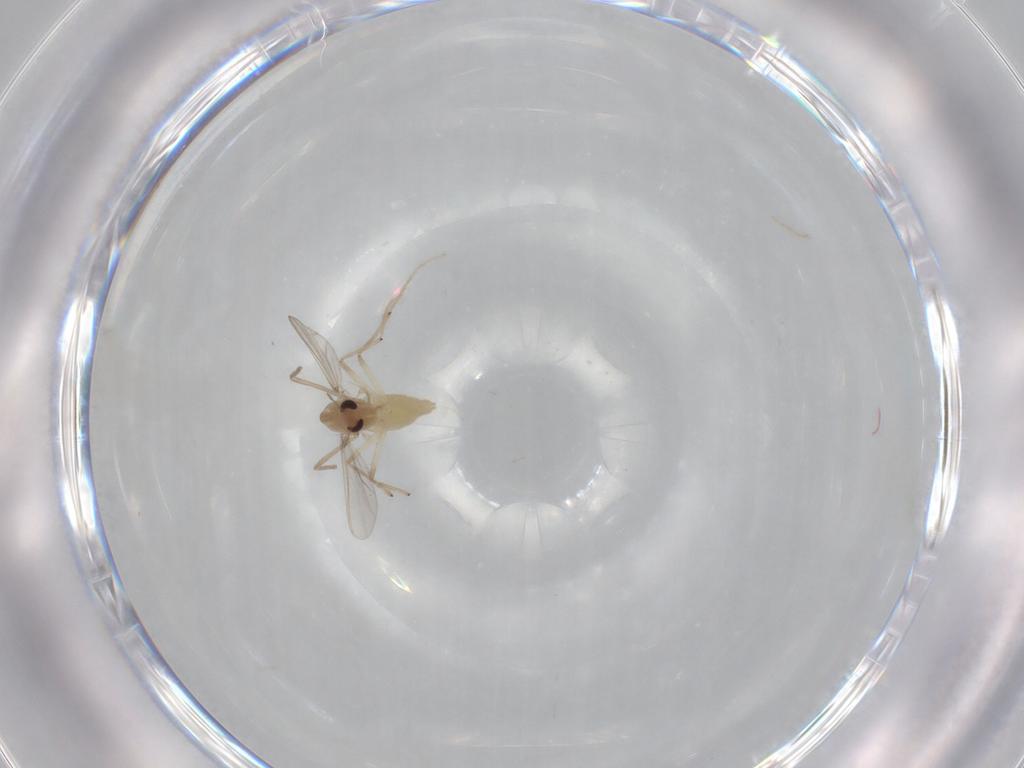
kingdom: Animalia
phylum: Arthropoda
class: Insecta
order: Diptera
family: Chironomidae
